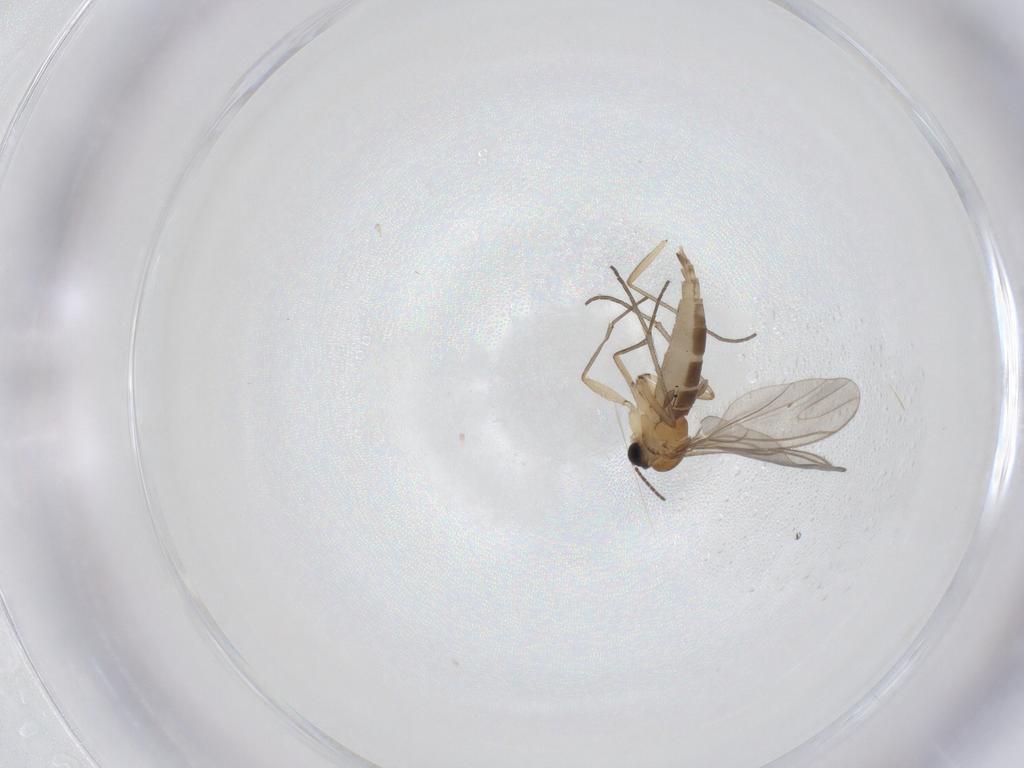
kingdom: Animalia
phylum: Arthropoda
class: Insecta
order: Diptera
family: Sciaridae
